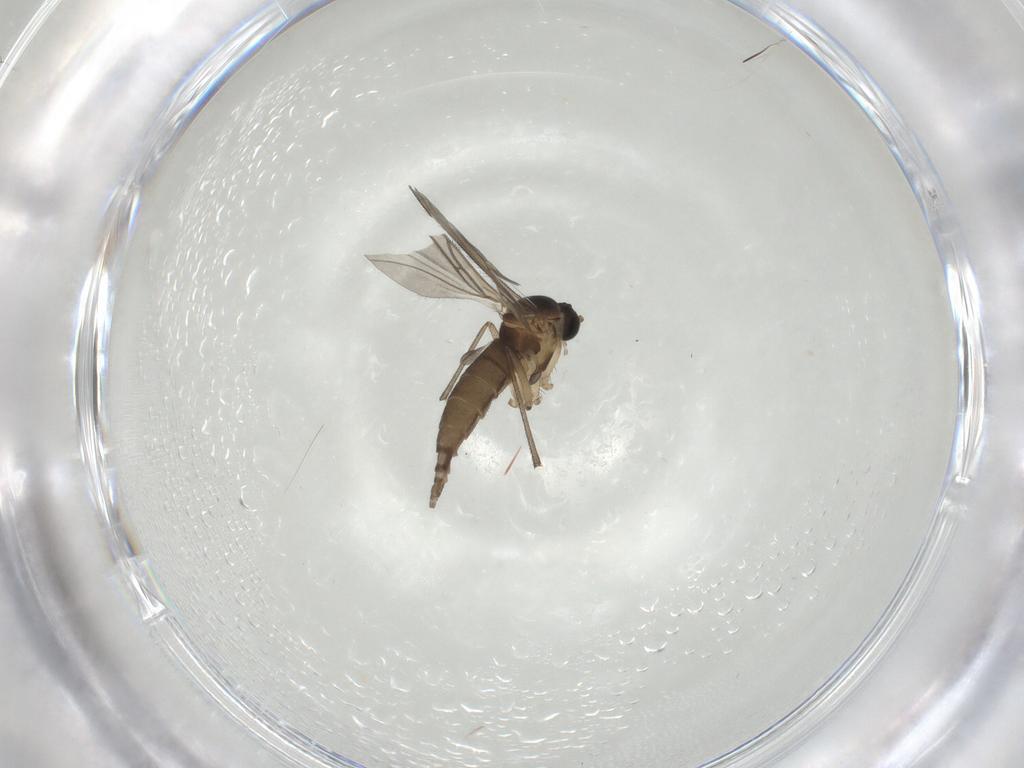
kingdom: Animalia
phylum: Arthropoda
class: Insecta
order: Diptera
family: Sciaridae
